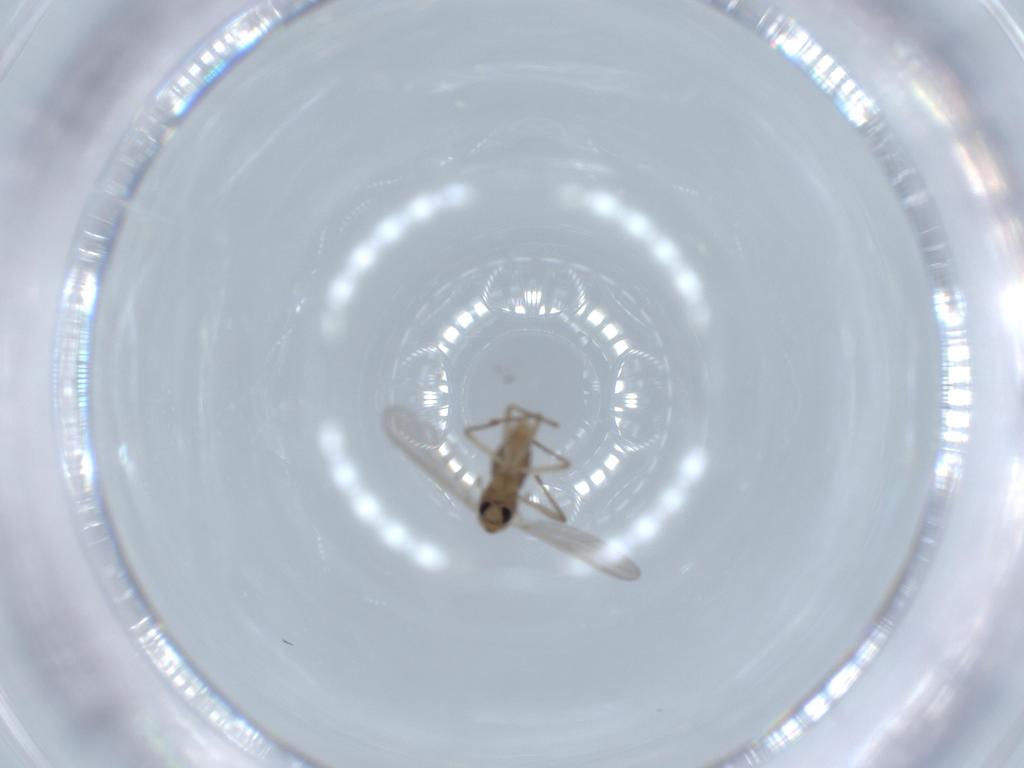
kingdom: Animalia
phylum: Arthropoda
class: Insecta
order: Diptera
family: Chironomidae
